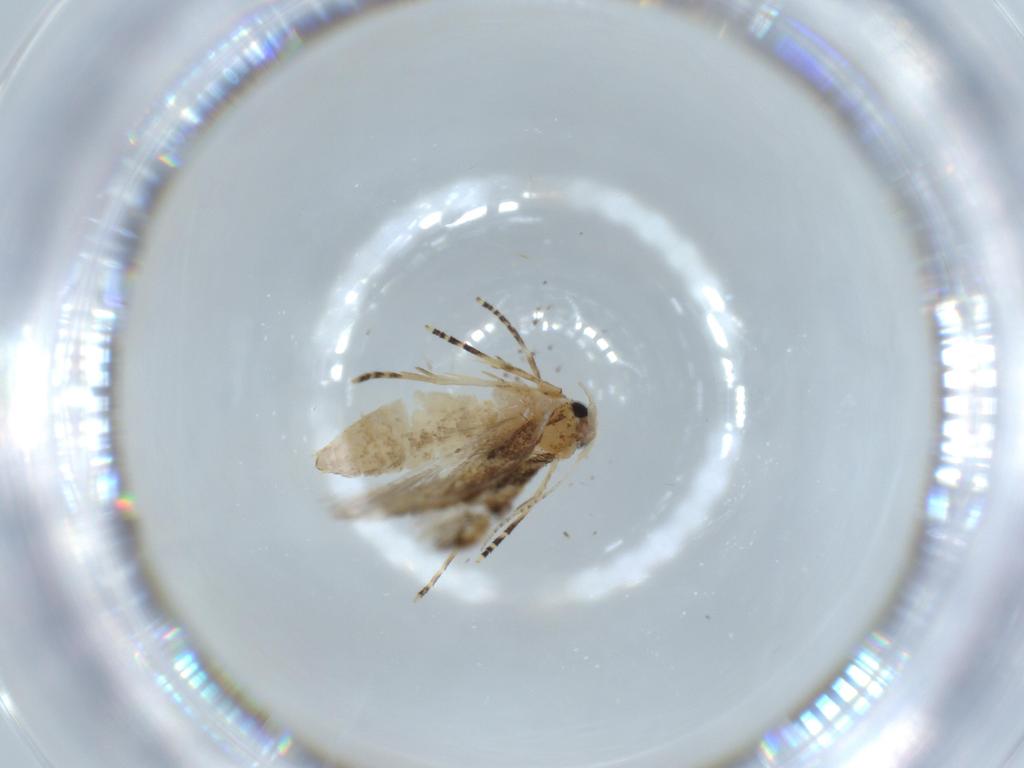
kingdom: Animalia
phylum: Arthropoda
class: Insecta
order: Lepidoptera
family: Bucculatricidae
